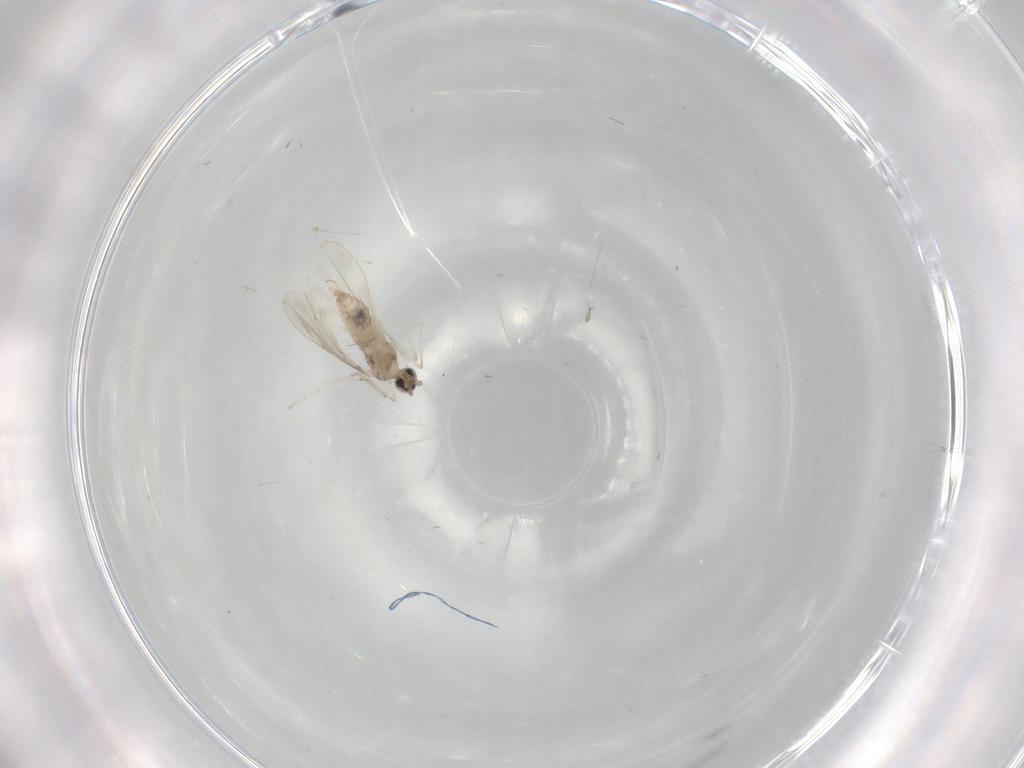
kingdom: Animalia
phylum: Arthropoda
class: Insecta
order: Diptera
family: Cecidomyiidae
